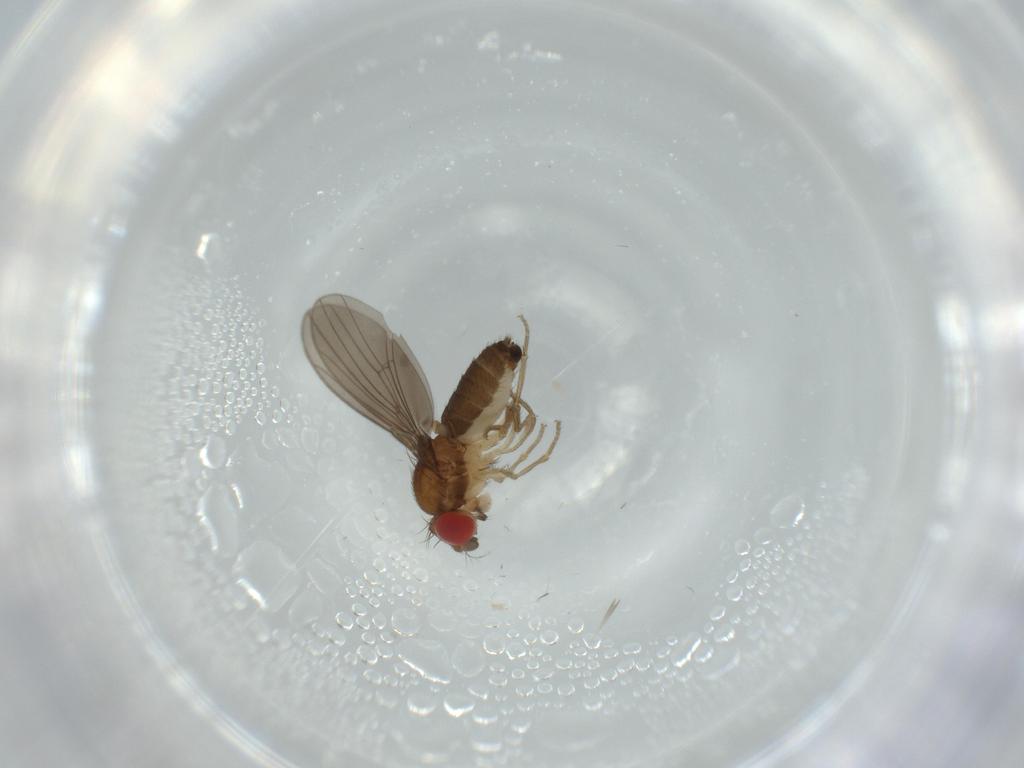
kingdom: Animalia
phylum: Arthropoda
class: Insecta
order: Diptera
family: Drosophilidae
